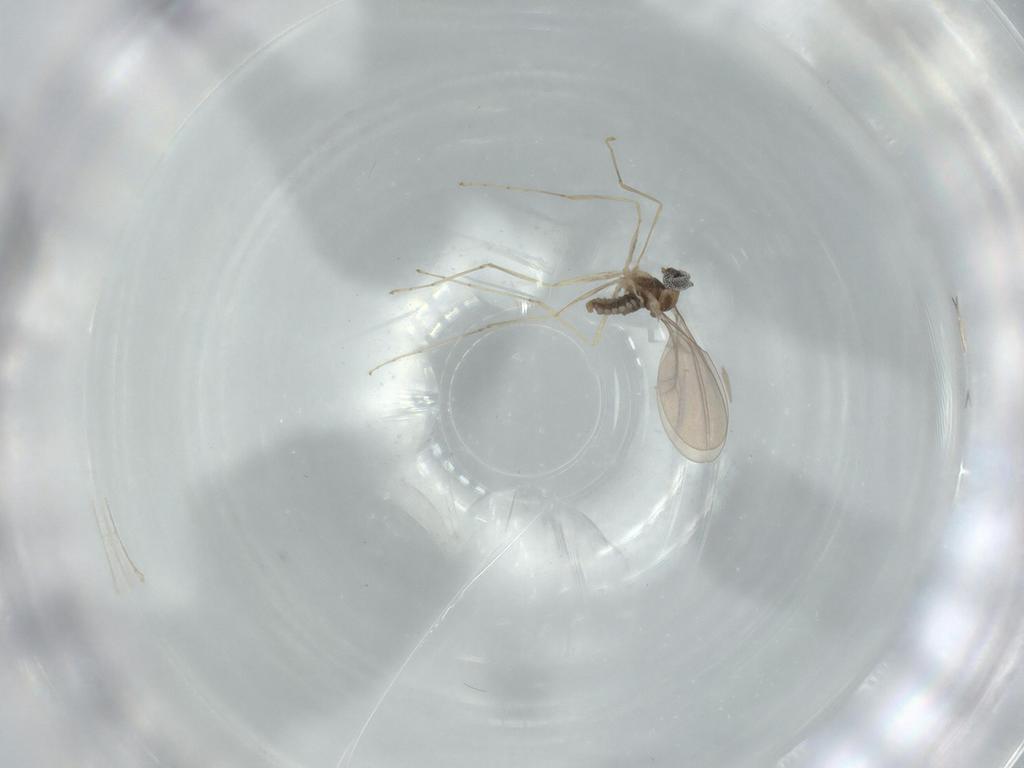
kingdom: Animalia
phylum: Arthropoda
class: Insecta
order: Diptera
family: Cecidomyiidae
